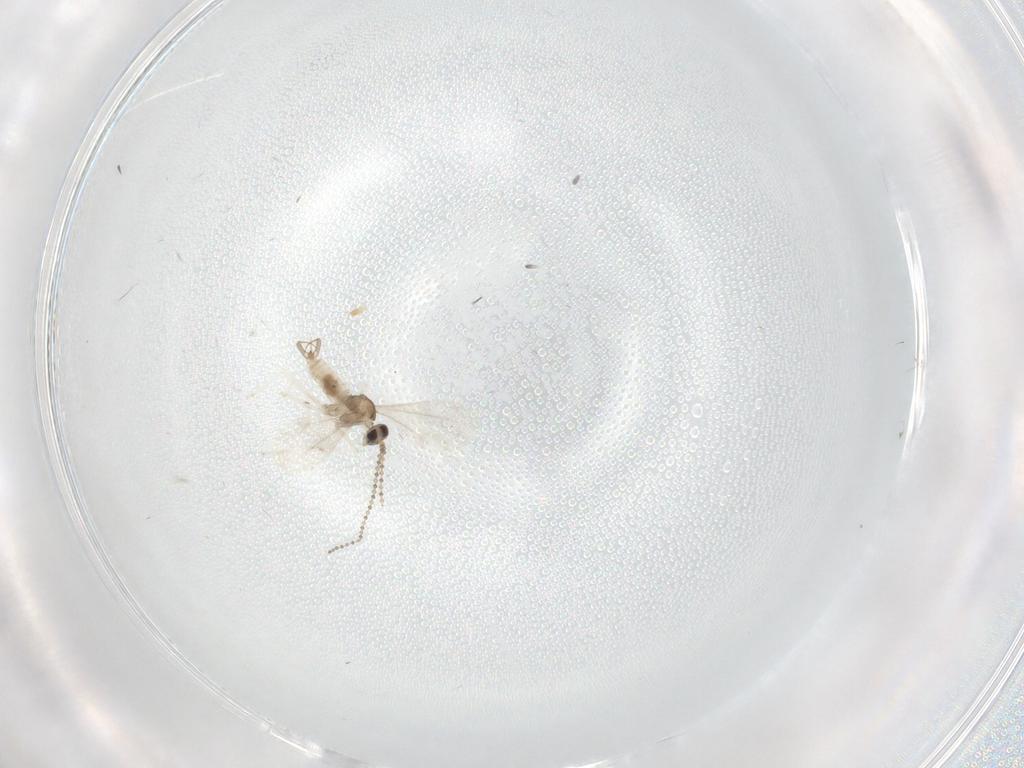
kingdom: Animalia
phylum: Arthropoda
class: Insecta
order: Diptera
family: Cecidomyiidae
